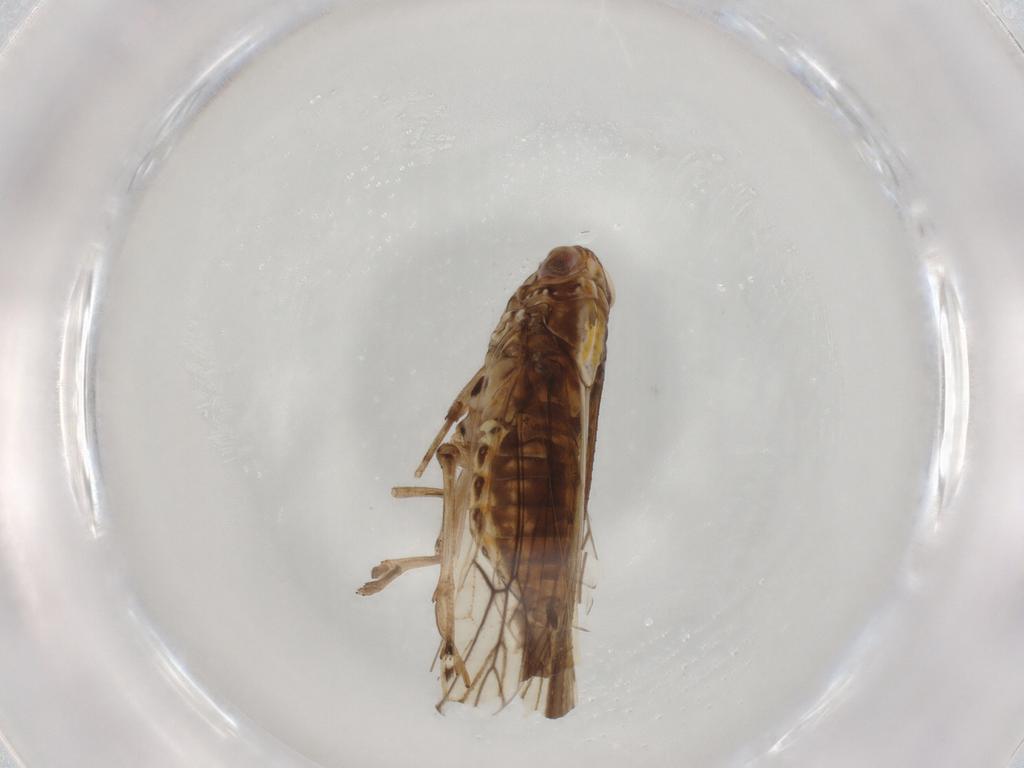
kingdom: Animalia
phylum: Arthropoda
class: Insecta
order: Hemiptera
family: Delphacidae
